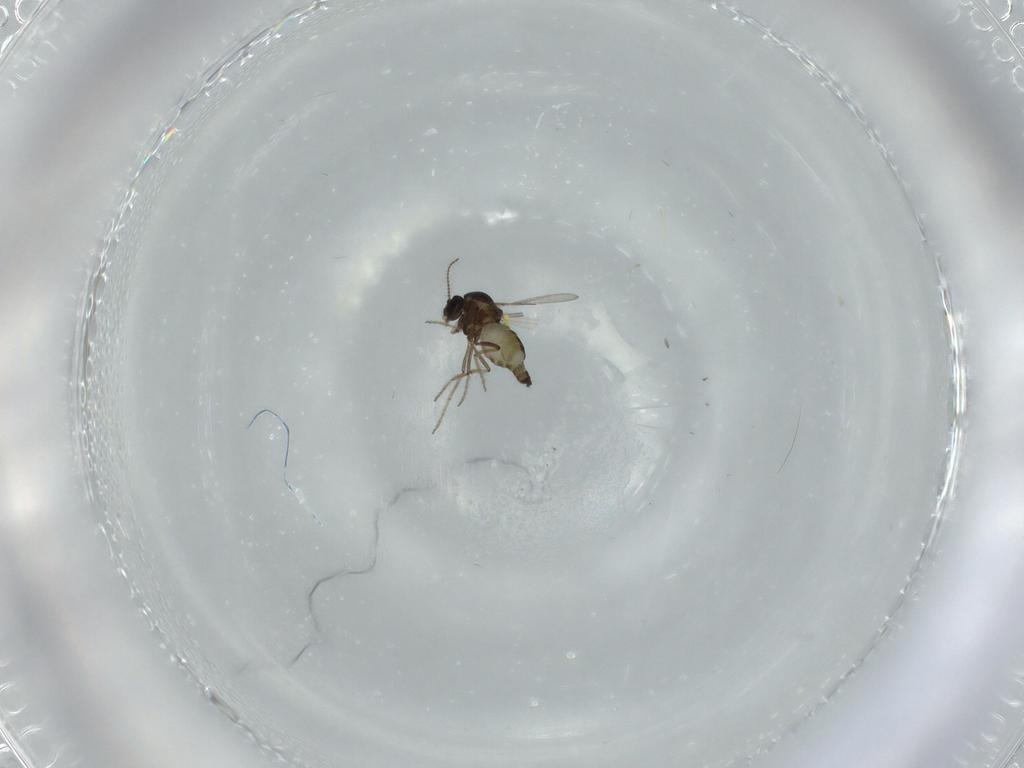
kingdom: Animalia
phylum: Arthropoda
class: Insecta
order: Diptera
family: Ceratopogonidae
